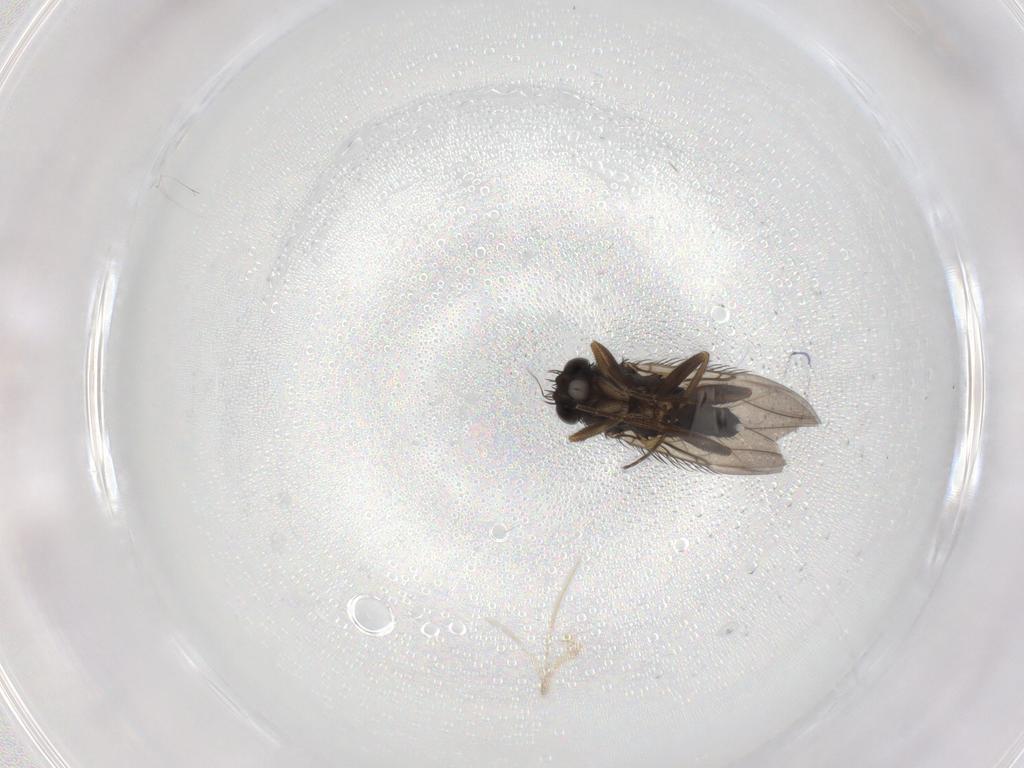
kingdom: Animalia
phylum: Arthropoda
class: Insecta
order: Diptera
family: Phoridae
